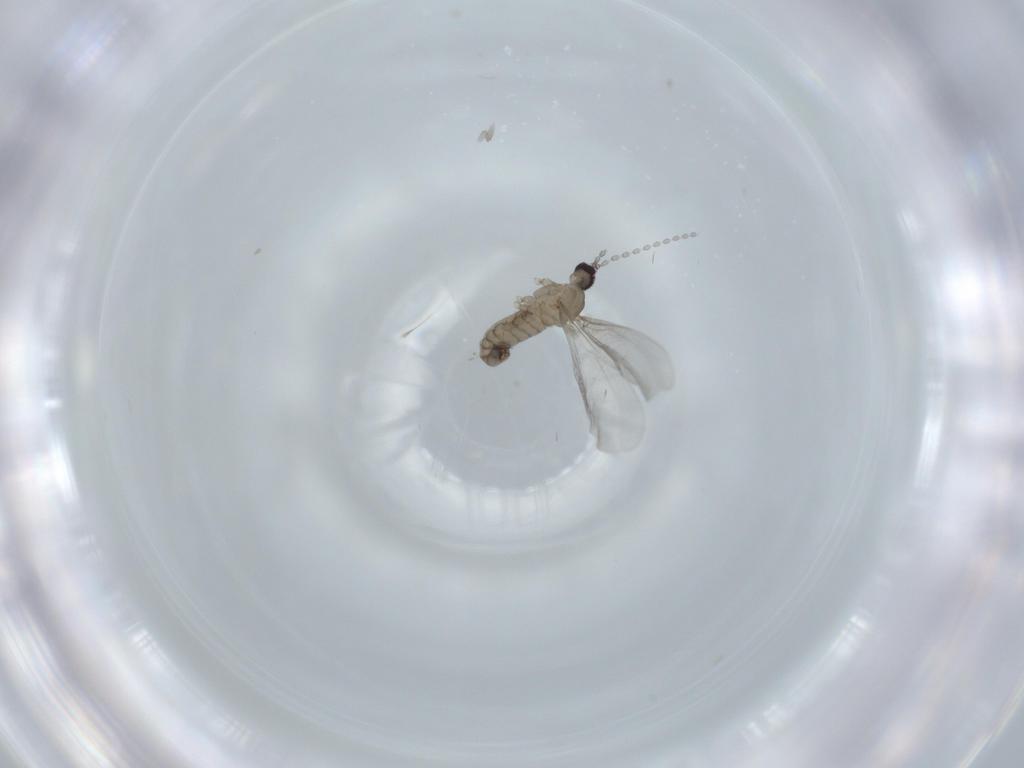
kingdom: Animalia
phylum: Arthropoda
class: Insecta
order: Diptera
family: Cecidomyiidae
